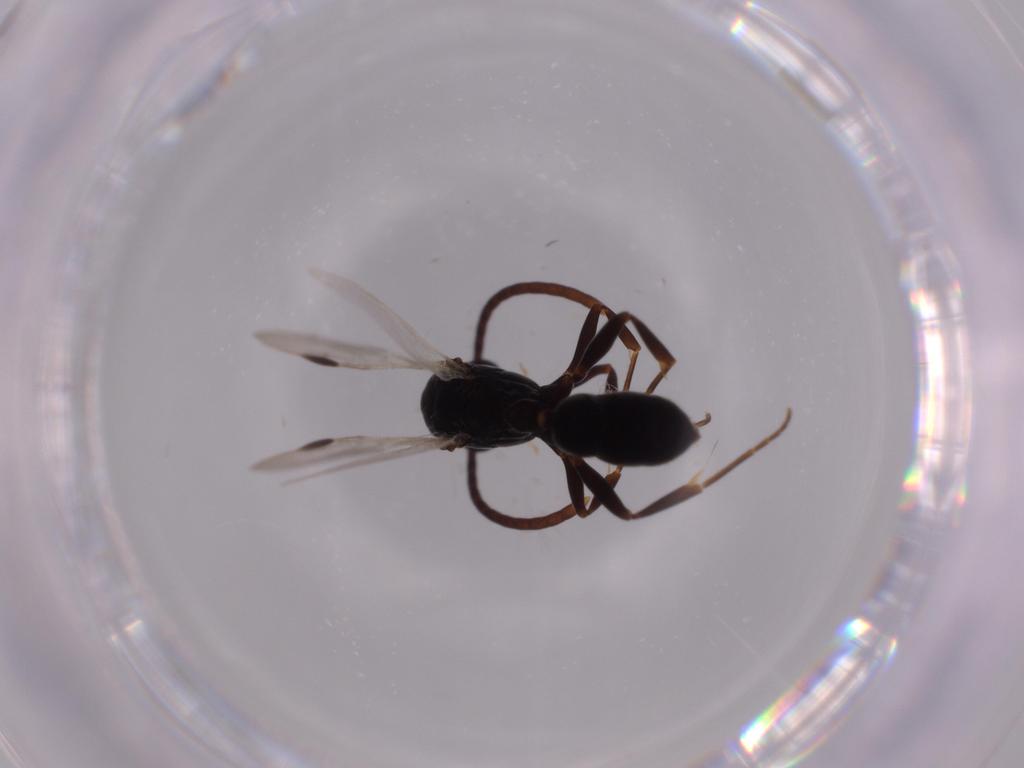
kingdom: Animalia
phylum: Arthropoda
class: Insecta
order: Hymenoptera
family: Formicidae
